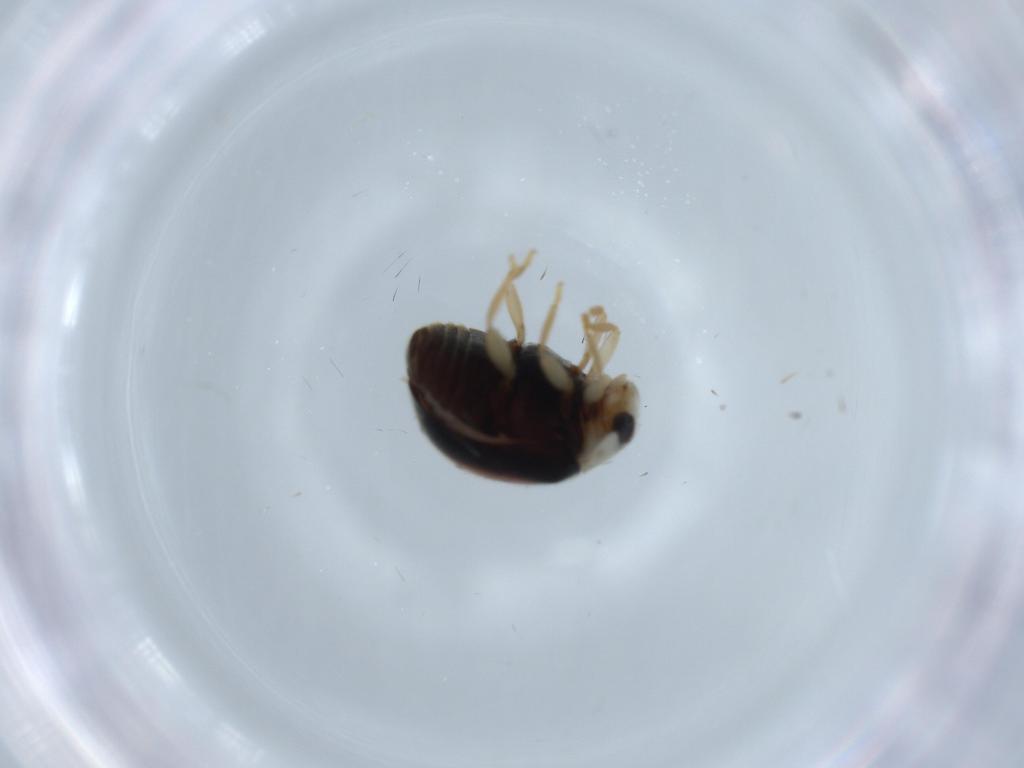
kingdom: Animalia
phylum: Arthropoda
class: Insecta
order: Coleoptera
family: Coccinellidae
